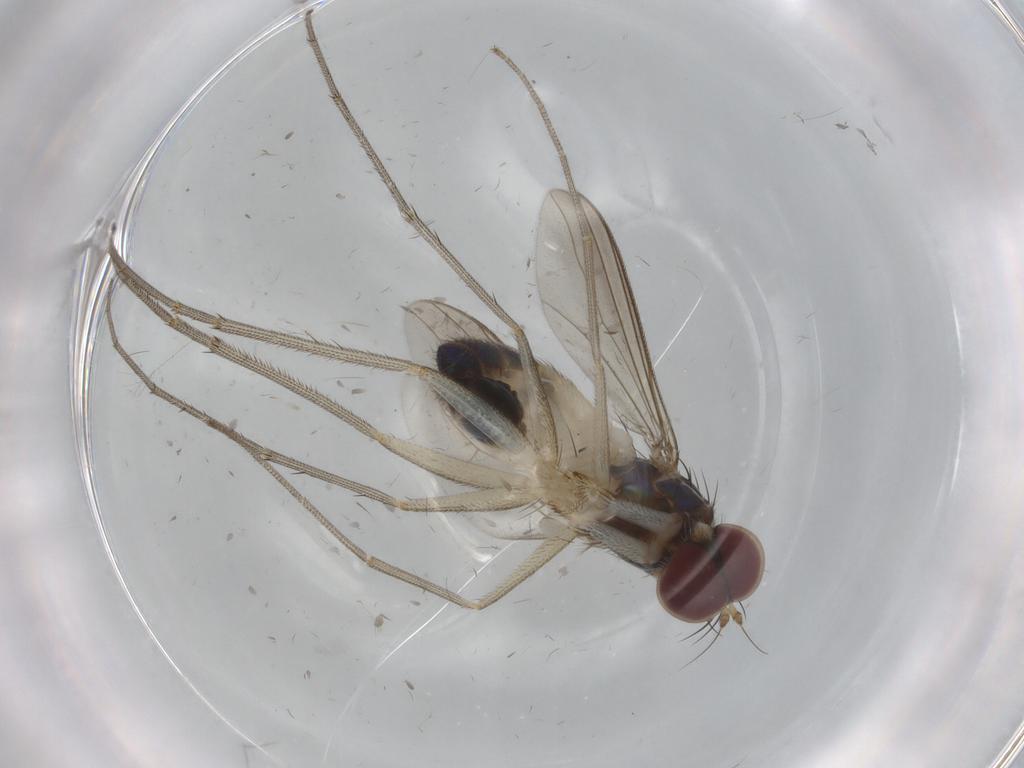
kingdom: Animalia
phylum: Arthropoda
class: Insecta
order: Diptera
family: Dolichopodidae
